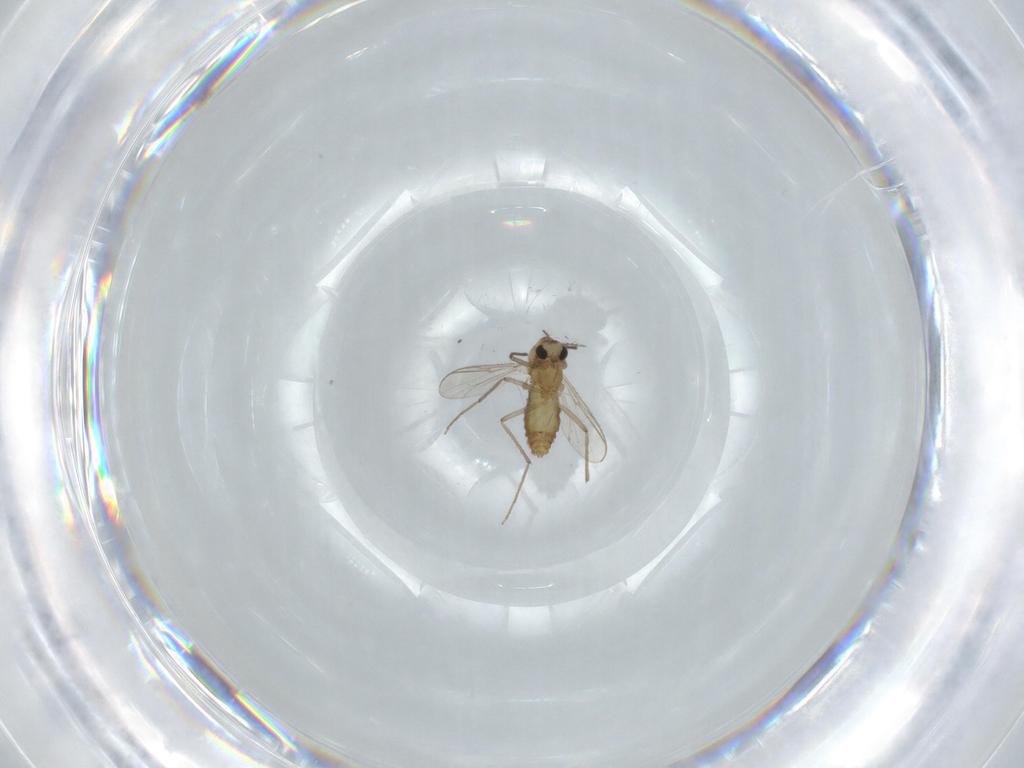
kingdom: Animalia
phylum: Arthropoda
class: Insecta
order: Diptera
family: Chironomidae
